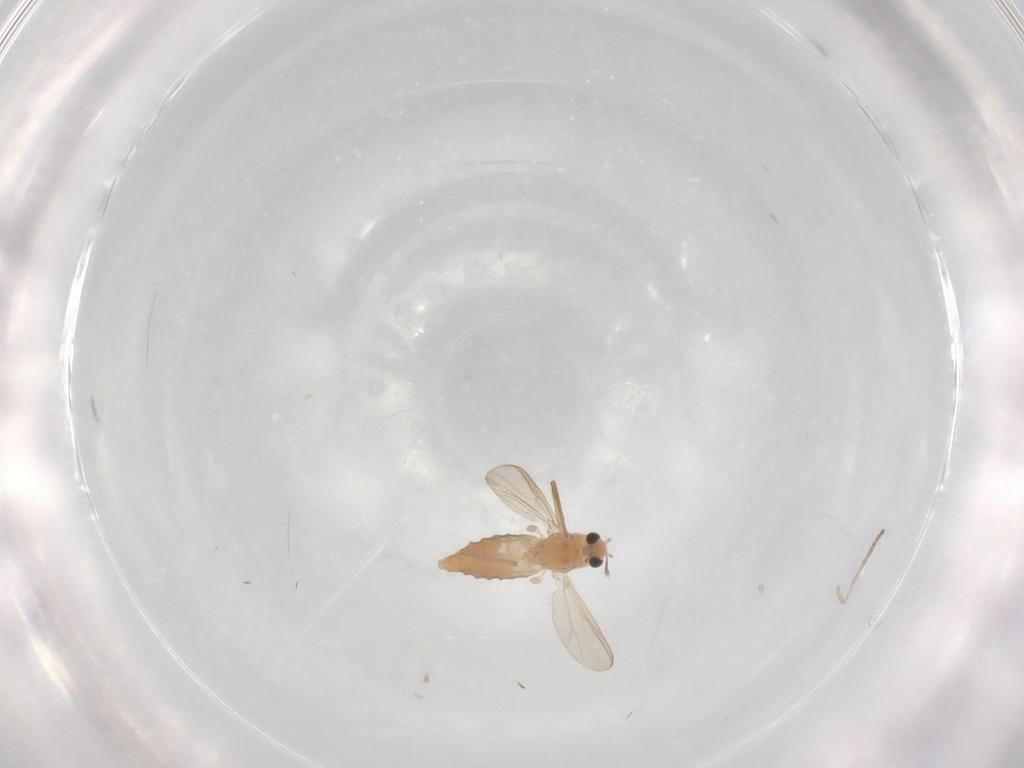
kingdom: Animalia
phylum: Arthropoda
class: Insecta
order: Diptera
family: Chironomidae
